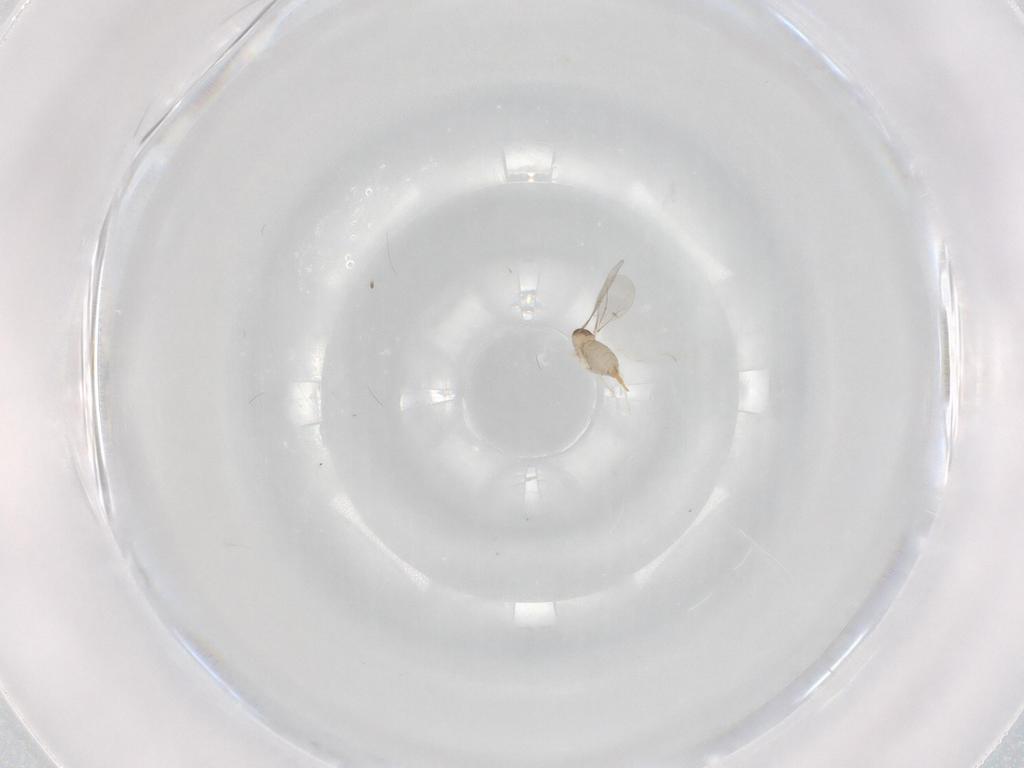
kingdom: Animalia
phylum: Arthropoda
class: Insecta
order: Diptera
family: Cecidomyiidae
